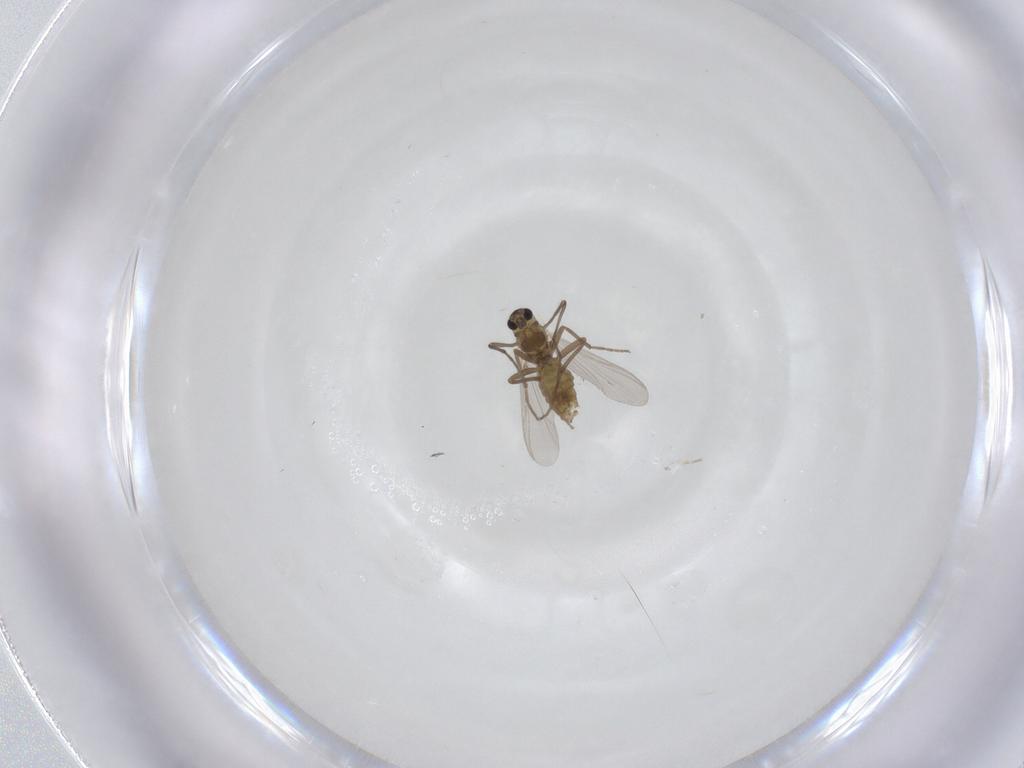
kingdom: Animalia
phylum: Arthropoda
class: Insecta
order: Diptera
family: Chironomidae
